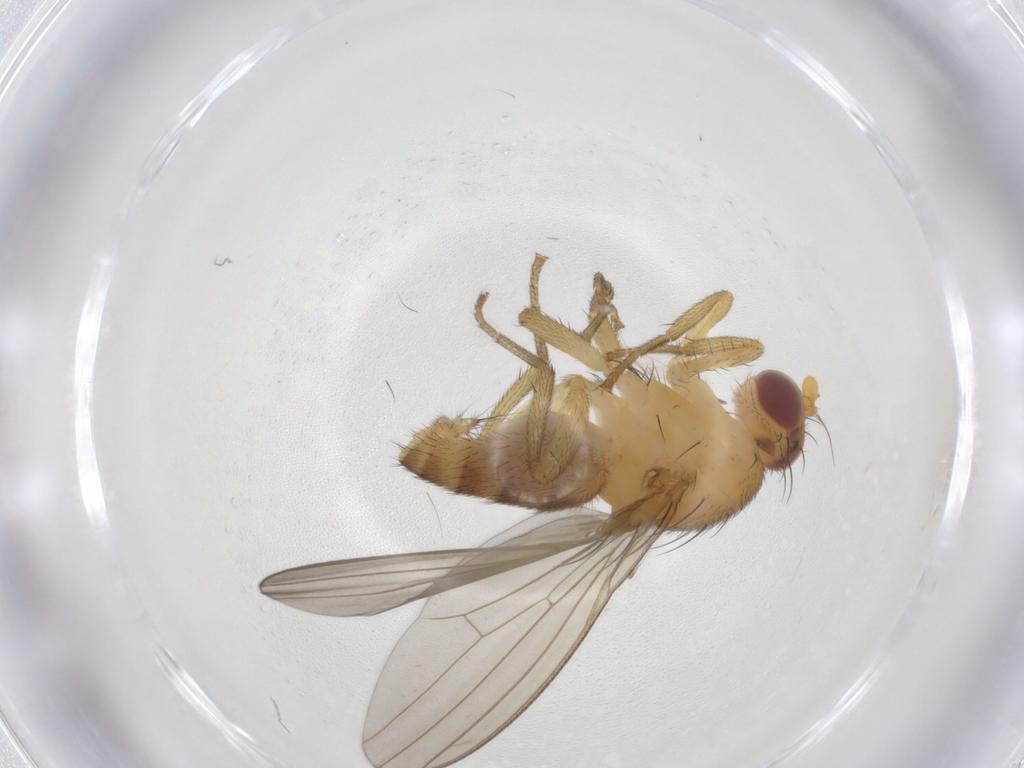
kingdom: Animalia
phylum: Arthropoda
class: Insecta
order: Diptera
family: Lauxaniidae
